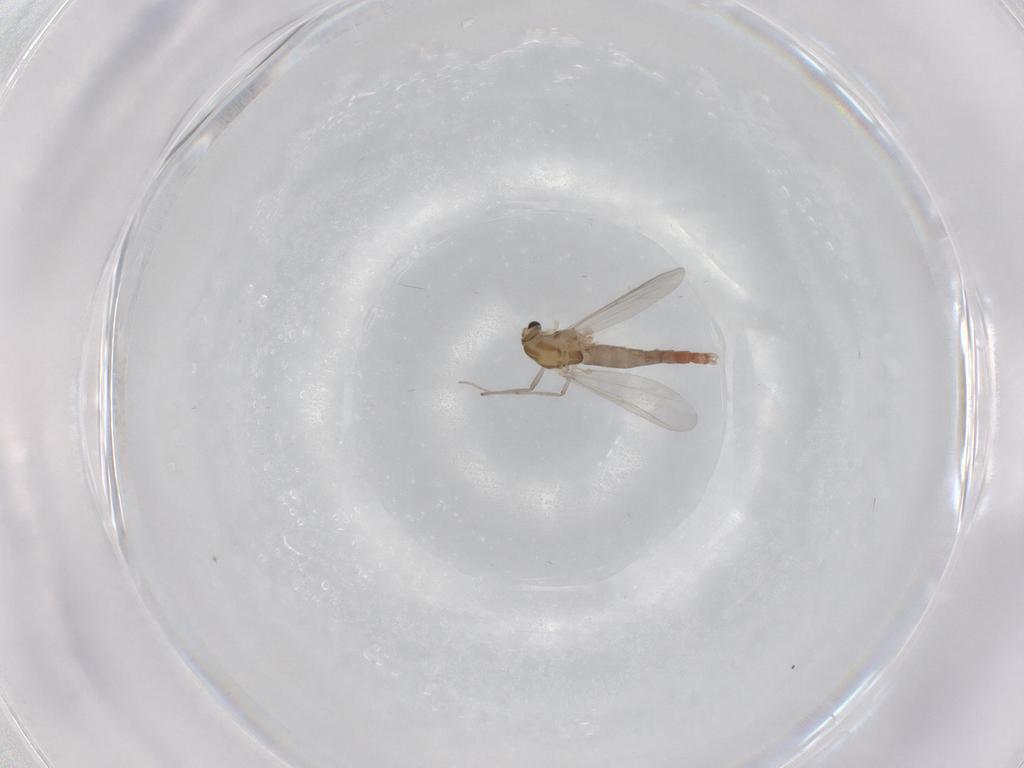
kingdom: Animalia
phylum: Arthropoda
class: Insecta
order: Diptera
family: Chironomidae
